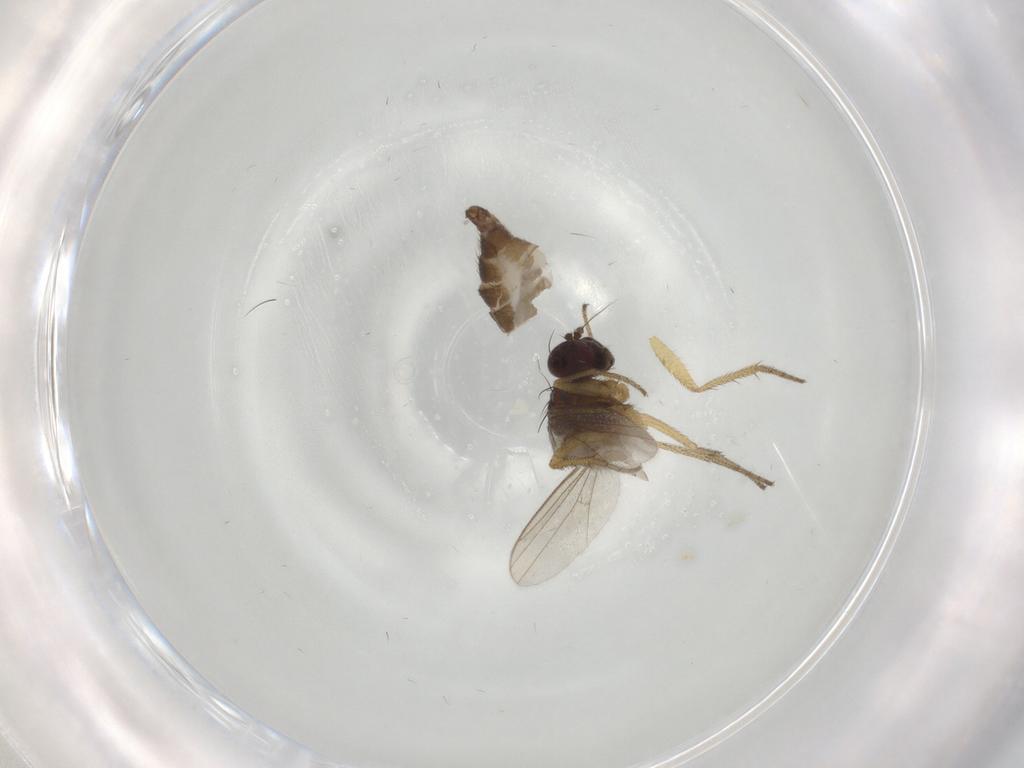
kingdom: Animalia
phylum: Arthropoda
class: Insecta
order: Diptera
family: Dolichopodidae
